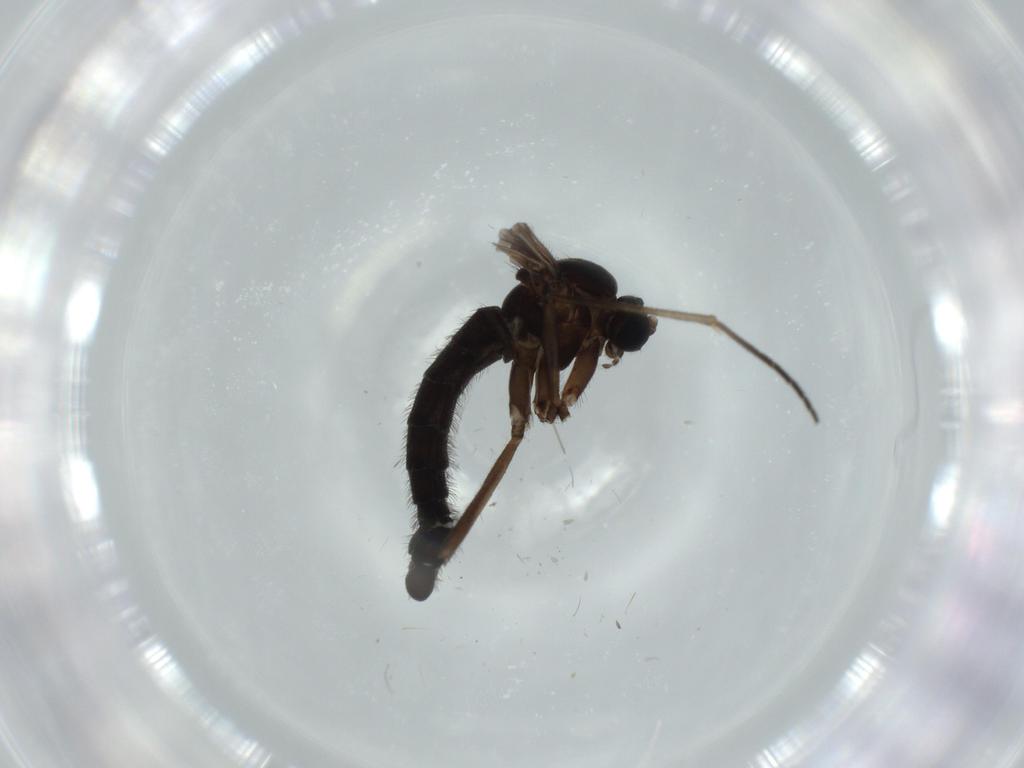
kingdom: Animalia
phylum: Arthropoda
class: Insecta
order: Diptera
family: Sciaridae
